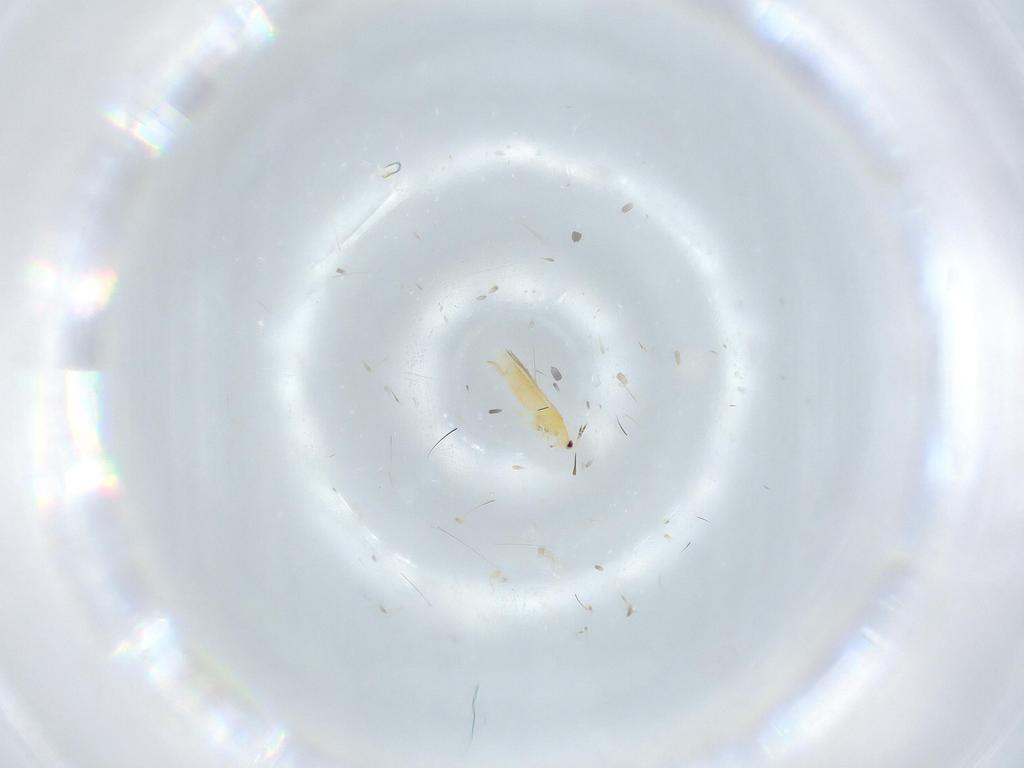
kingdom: Animalia
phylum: Arthropoda
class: Insecta
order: Thysanoptera
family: Thripidae
